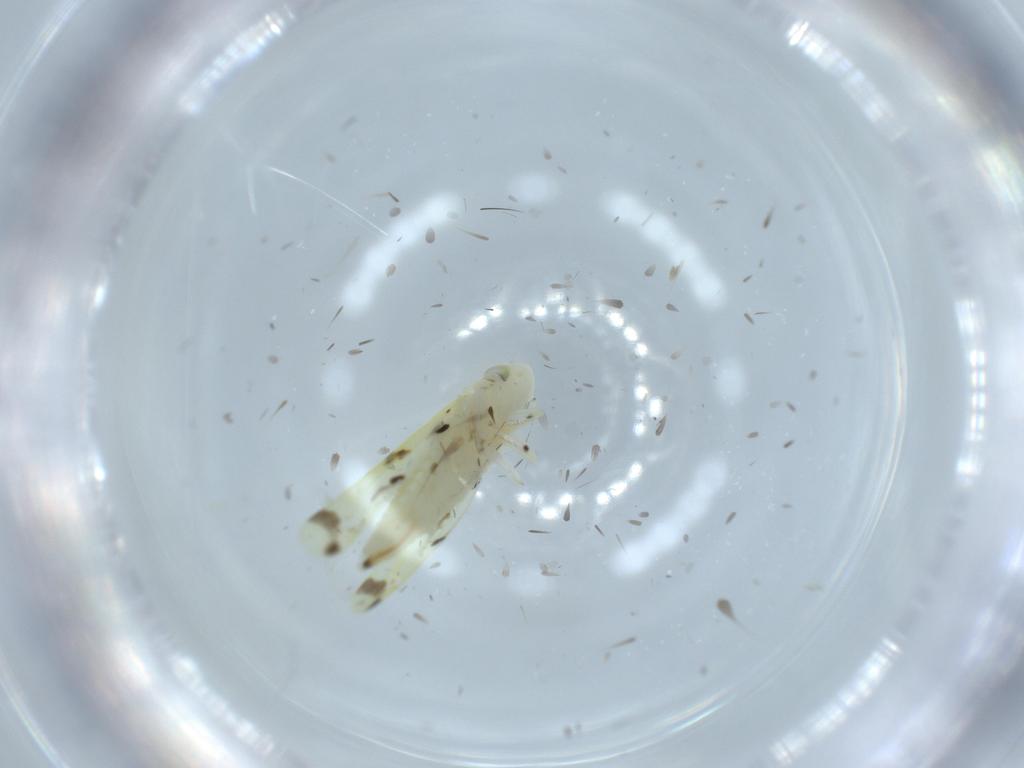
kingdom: Animalia
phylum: Arthropoda
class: Insecta
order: Hemiptera
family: Cicadellidae
